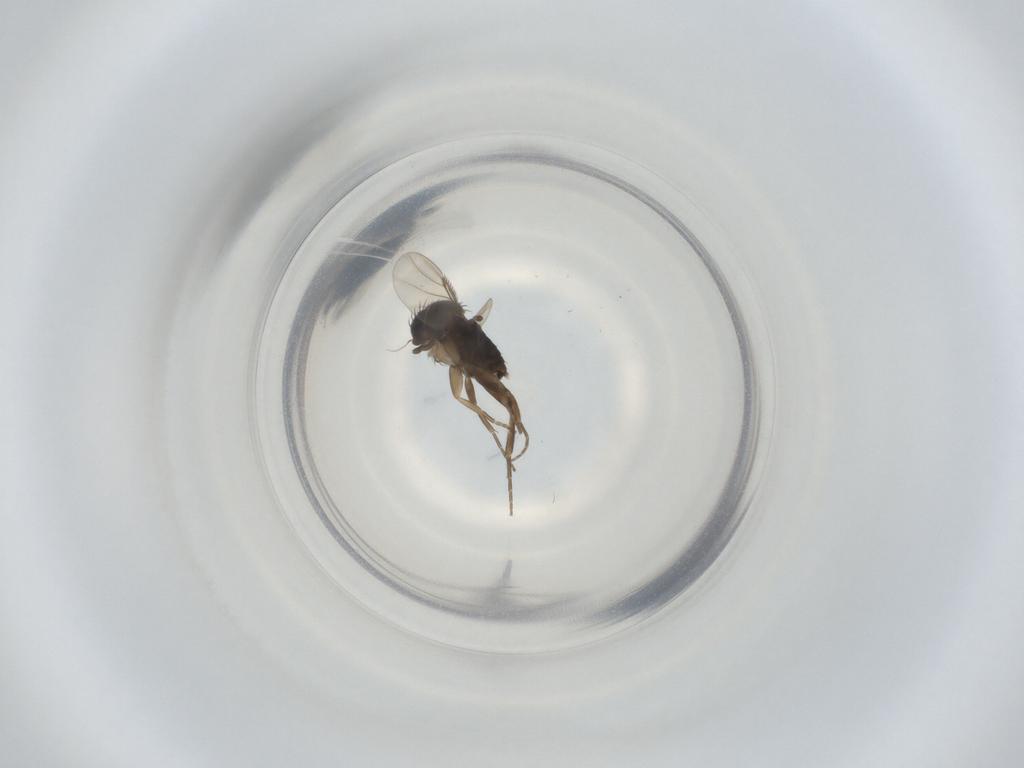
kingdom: Animalia
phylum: Arthropoda
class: Insecta
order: Diptera
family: Phoridae
